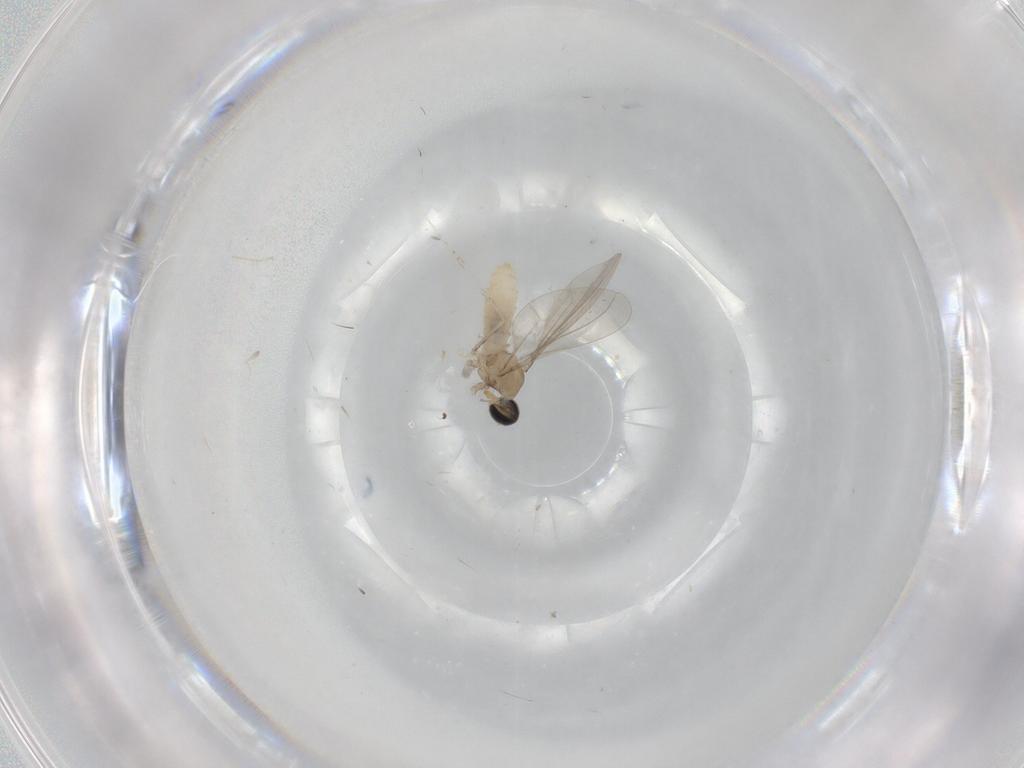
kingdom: Animalia
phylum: Arthropoda
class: Insecta
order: Diptera
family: Cecidomyiidae
